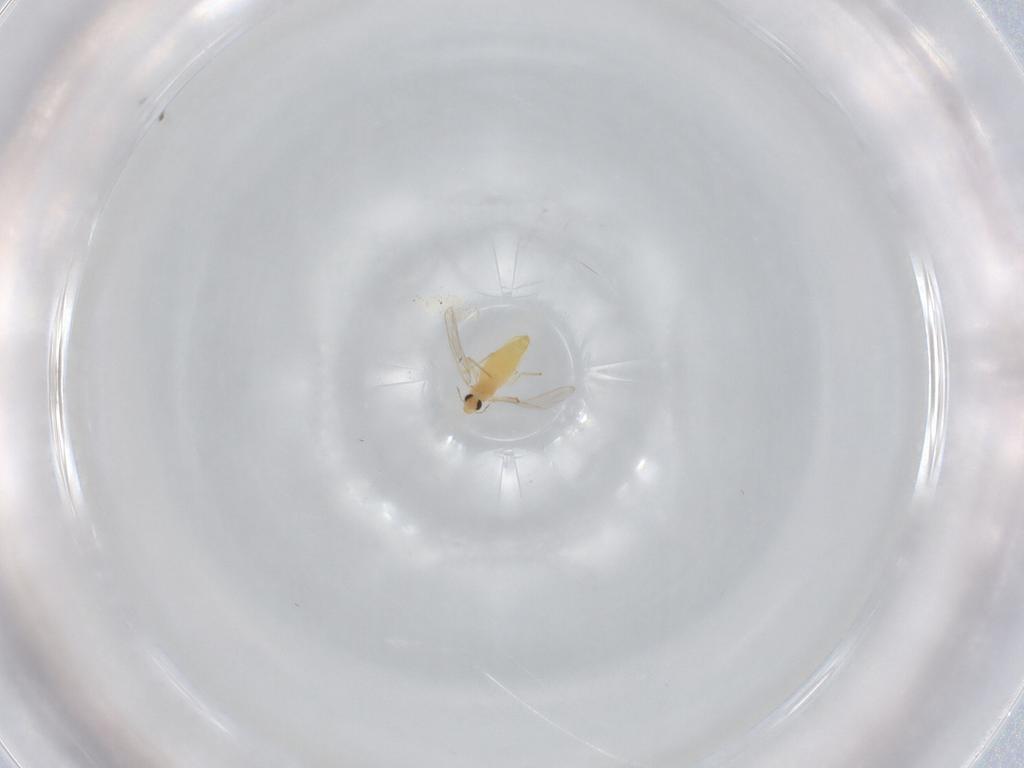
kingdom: Animalia
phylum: Arthropoda
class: Insecta
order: Diptera
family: Chironomidae
